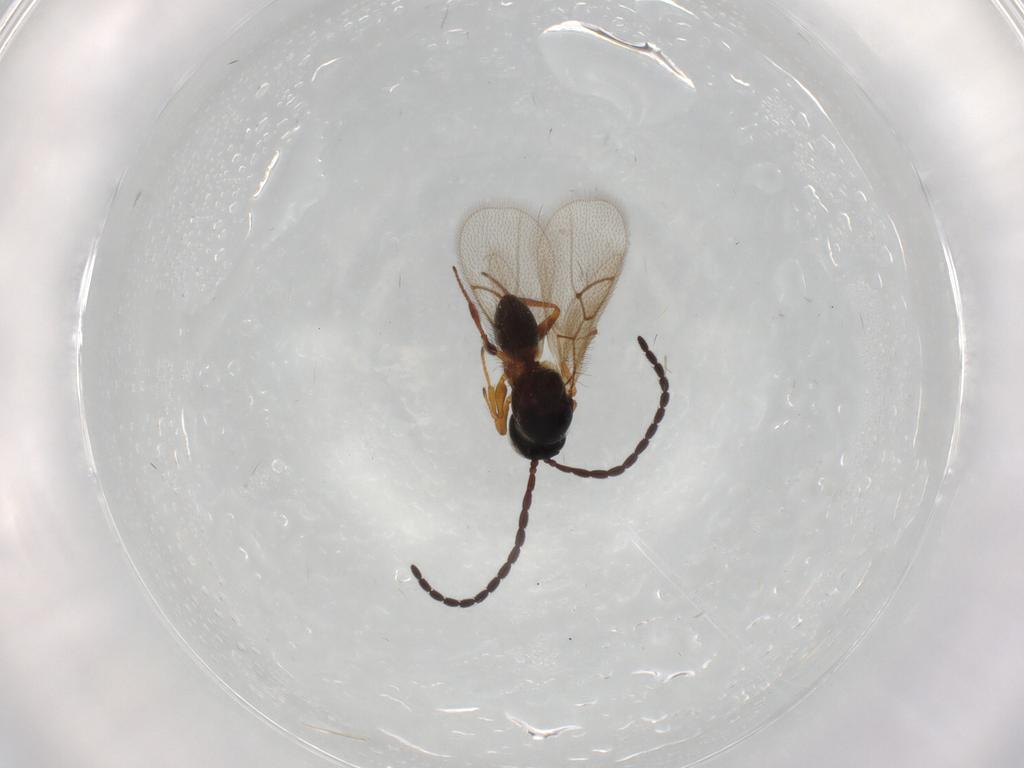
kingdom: Animalia
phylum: Arthropoda
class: Insecta
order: Hymenoptera
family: Figitidae
